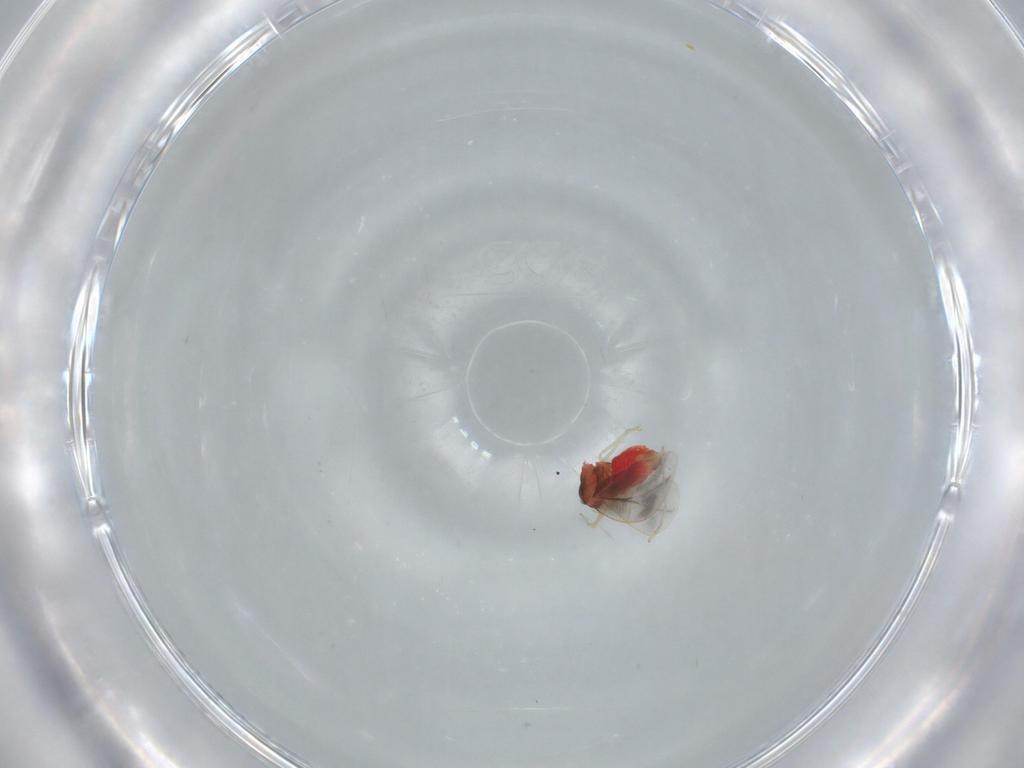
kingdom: Animalia
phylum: Arthropoda
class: Insecta
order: Hemiptera
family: Aleyrodidae
